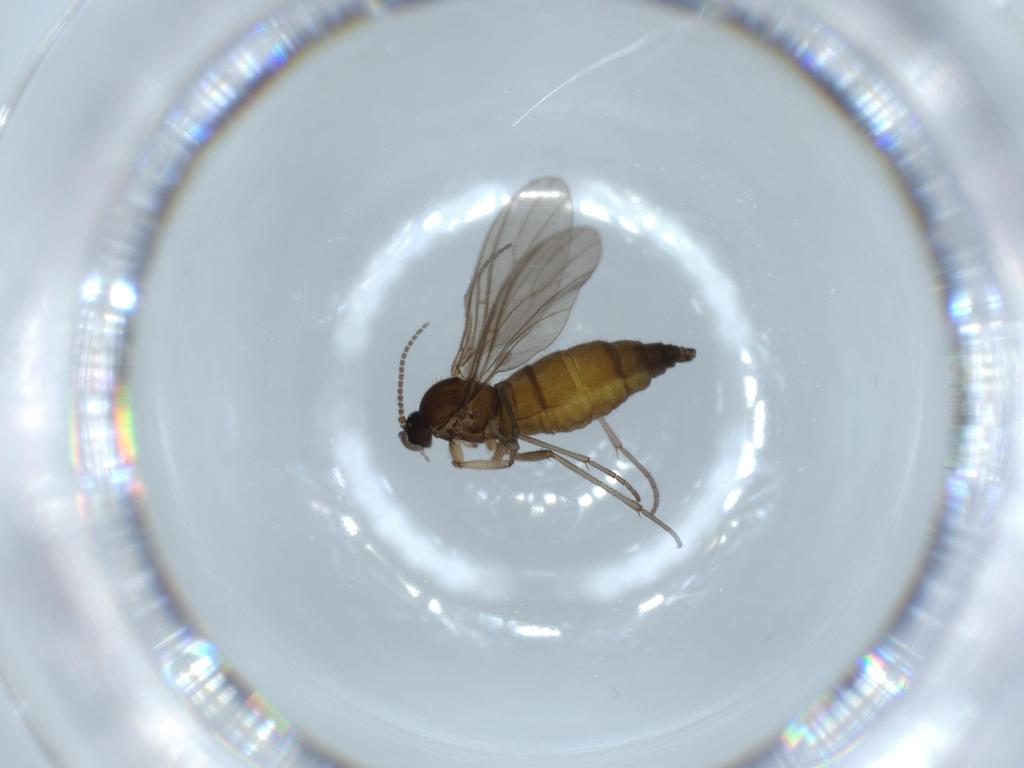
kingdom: Animalia
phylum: Arthropoda
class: Insecta
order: Diptera
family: Sciaridae
